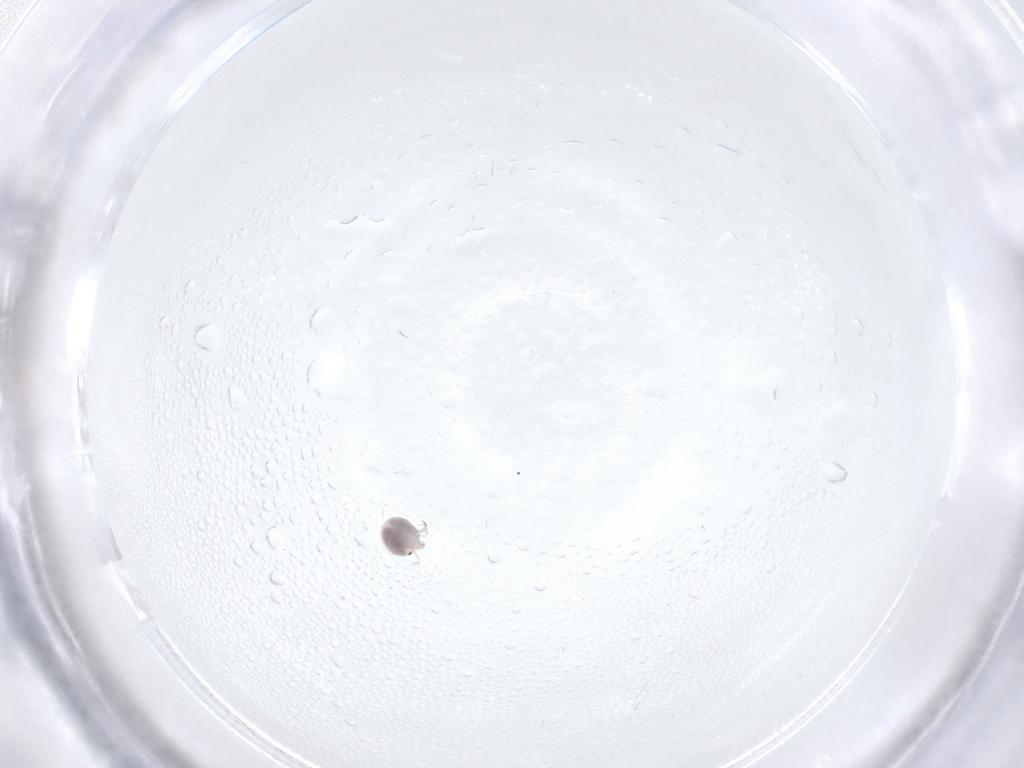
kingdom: Animalia
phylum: Arthropoda
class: Arachnida
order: Trombidiformes
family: Pionidae
